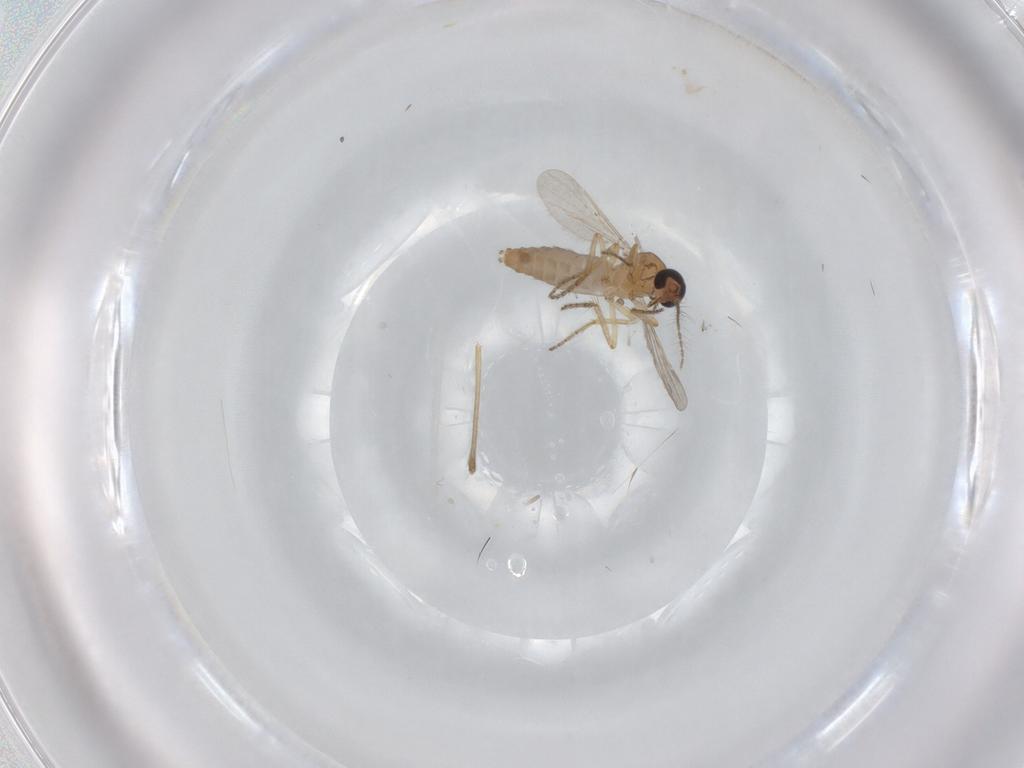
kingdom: Animalia
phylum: Arthropoda
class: Insecta
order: Diptera
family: Ceratopogonidae
